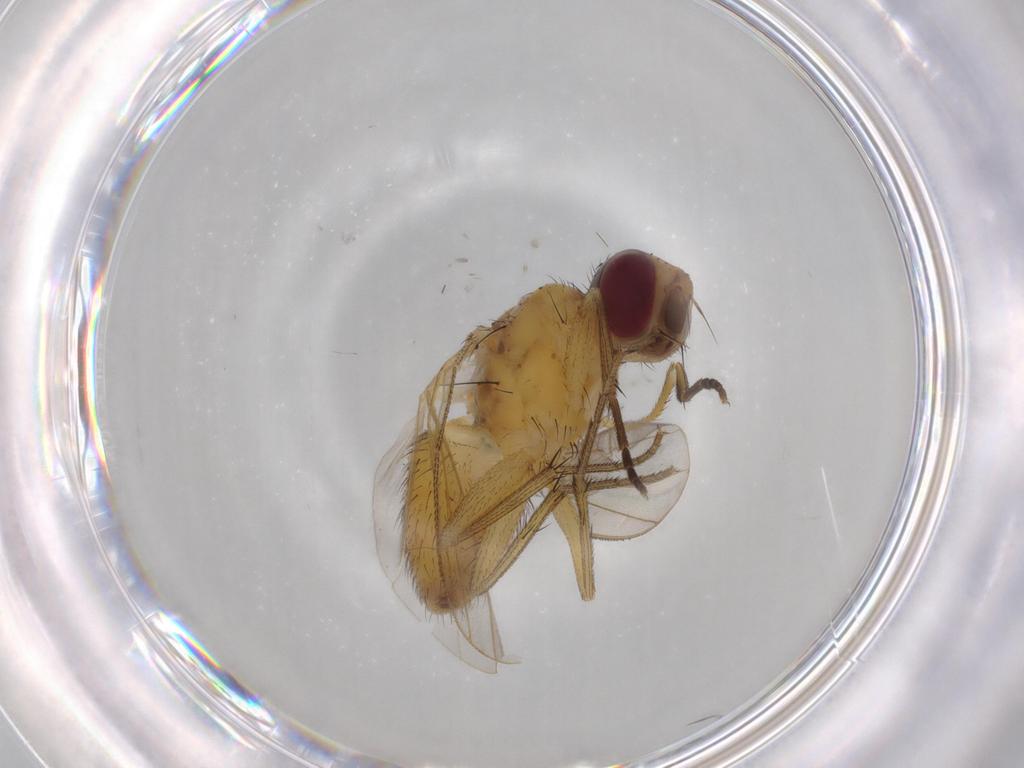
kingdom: Animalia
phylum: Arthropoda
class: Insecta
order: Diptera
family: Muscidae
